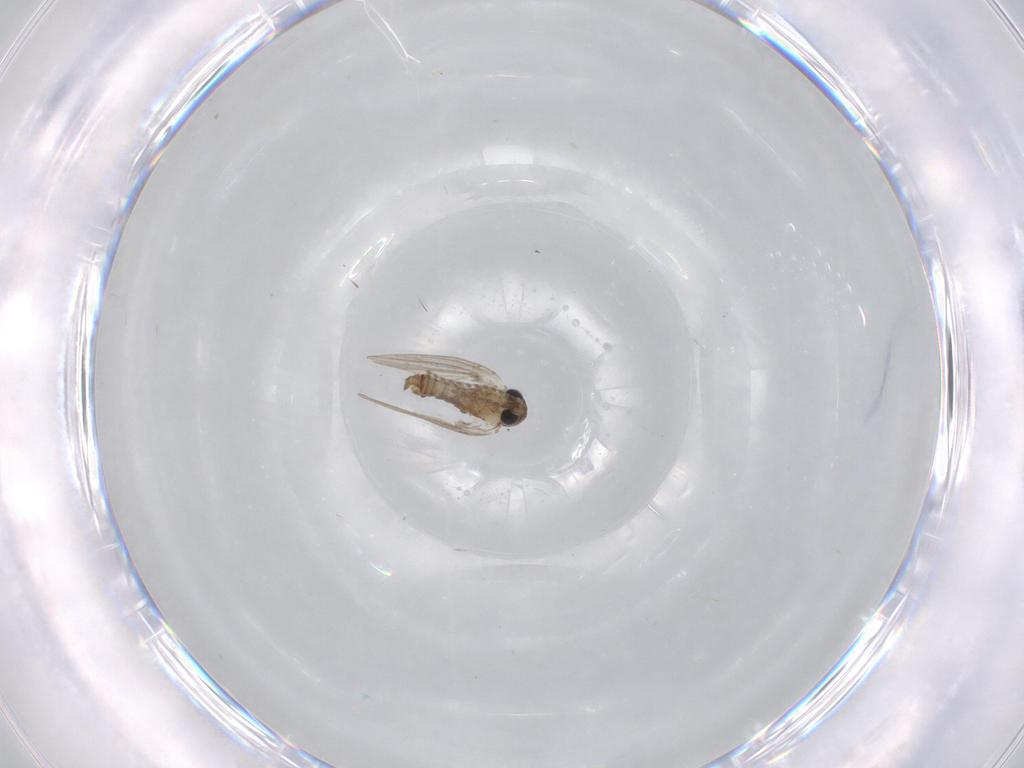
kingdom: Animalia
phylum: Arthropoda
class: Insecta
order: Diptera
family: Psychodidae
